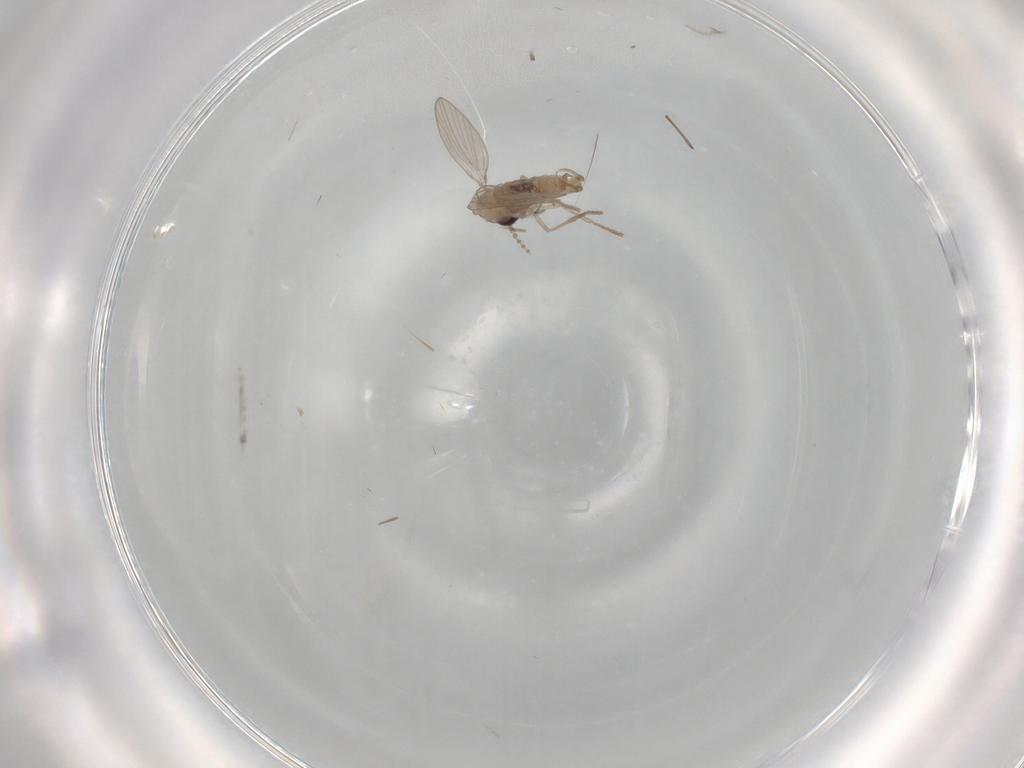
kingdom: Animalia
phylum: Arthropoda
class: Insecta
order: Diptera
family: Psychodidae
